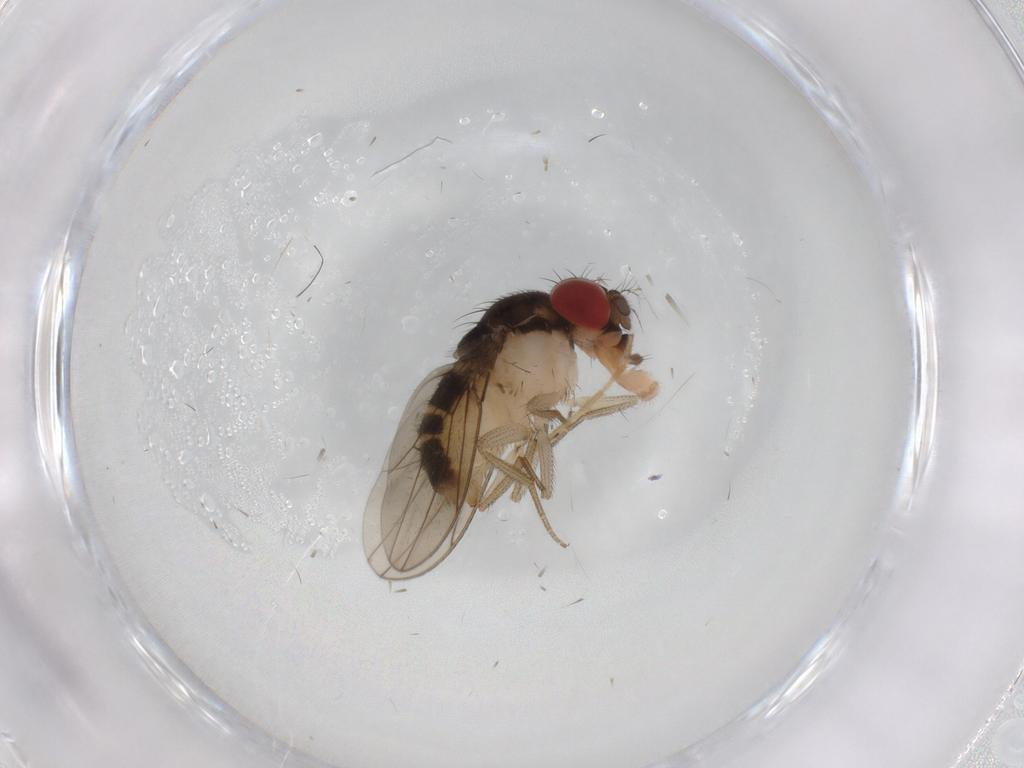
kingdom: Animalia
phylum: Arthropoda
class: Insecta
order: Diptera
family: Drosophilidae
